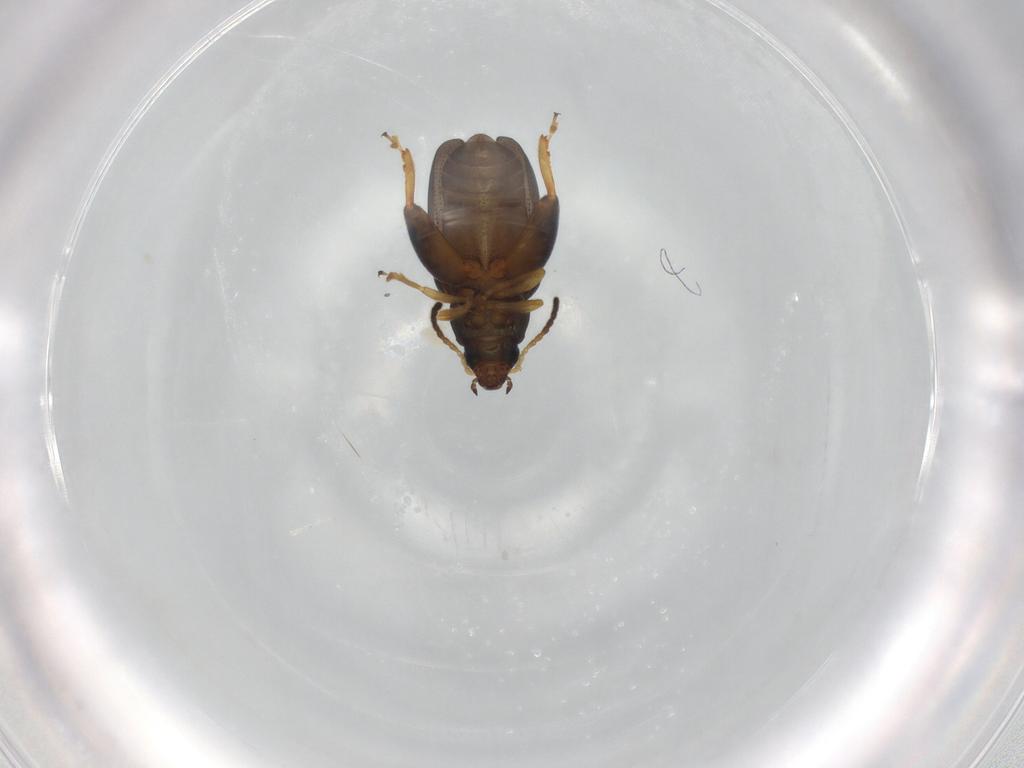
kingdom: Animalia
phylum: Arthropoda
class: Insecta
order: Coleoptera
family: Chrysomelidae
